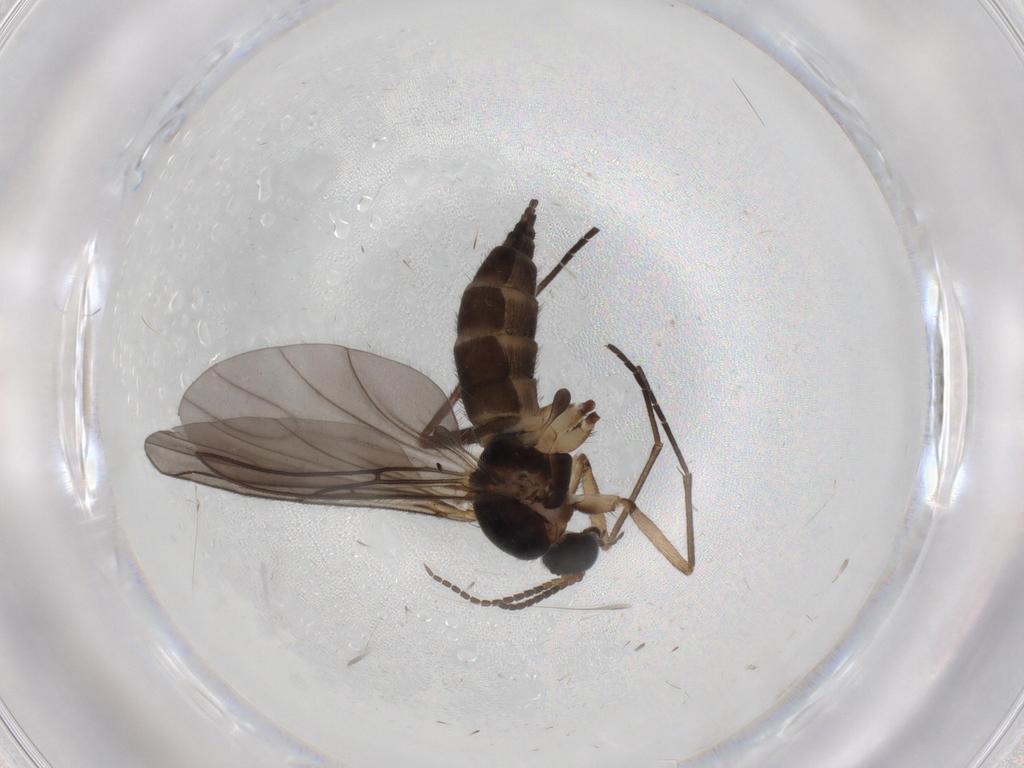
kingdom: Animalia
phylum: Arthropoda
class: Insecta
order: Diptera
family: Sciaridae
